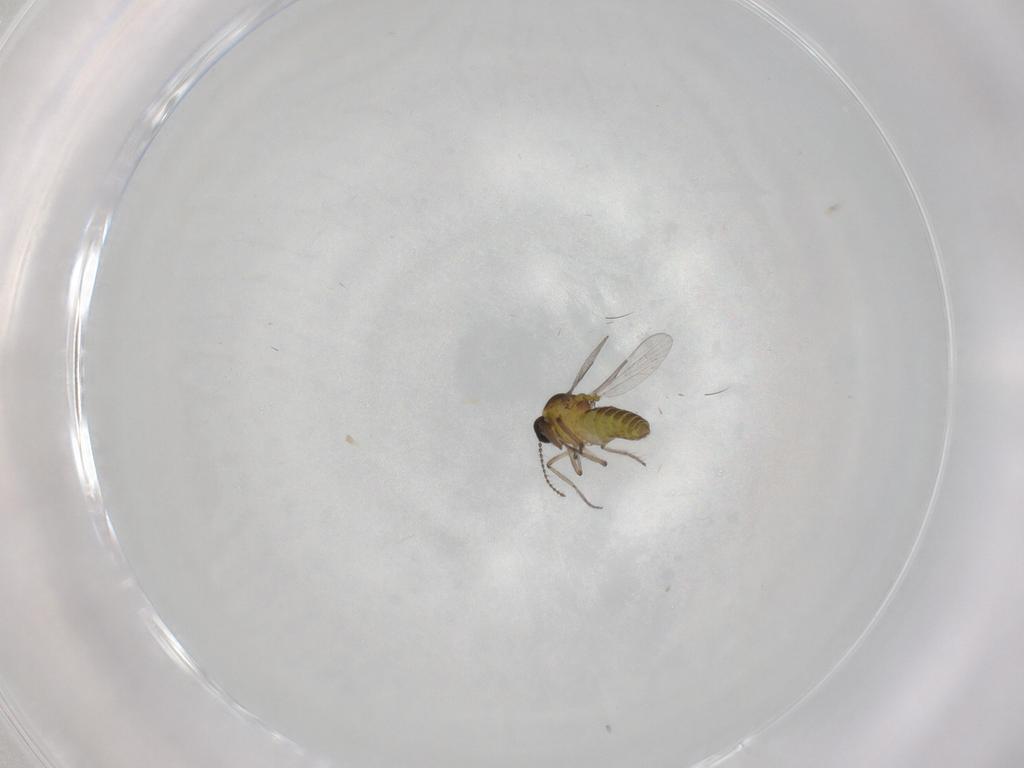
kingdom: Animalia
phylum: Arthropoda
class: Insecta
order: Diptera
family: Ceratopogonidae
